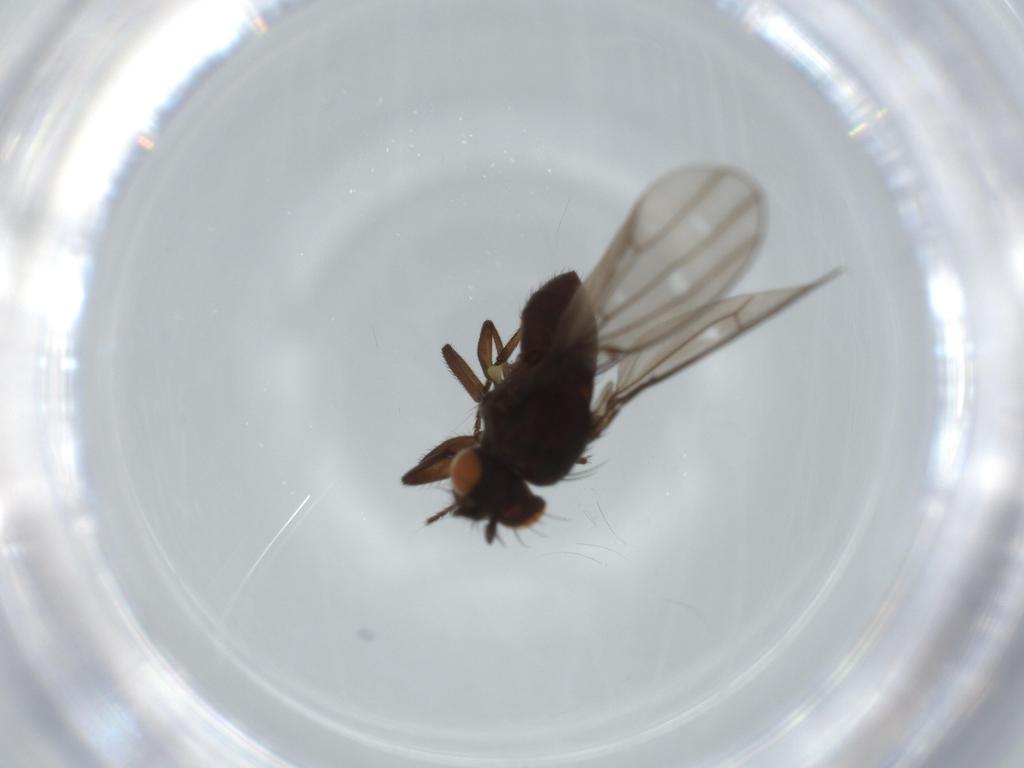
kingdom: Animalia
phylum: Arthropoda
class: Insecta
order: Diptera
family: Ephydridae
